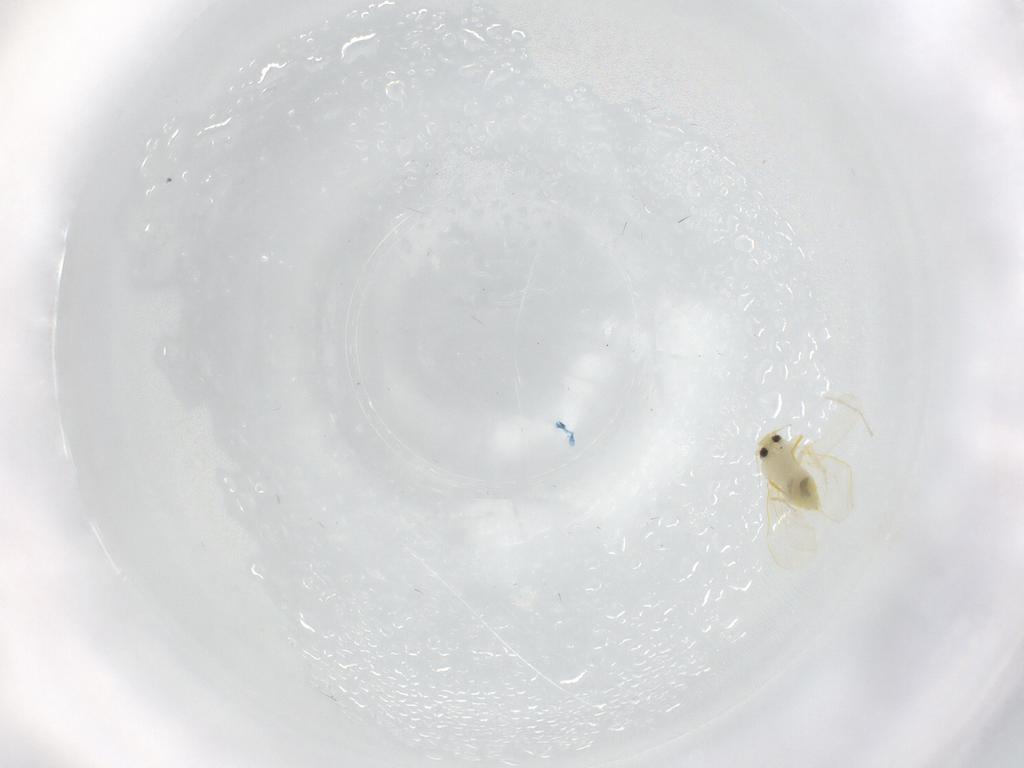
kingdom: Animalia
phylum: Arthropoda
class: Insecta
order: Hemiptera
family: Aleyrodidae
